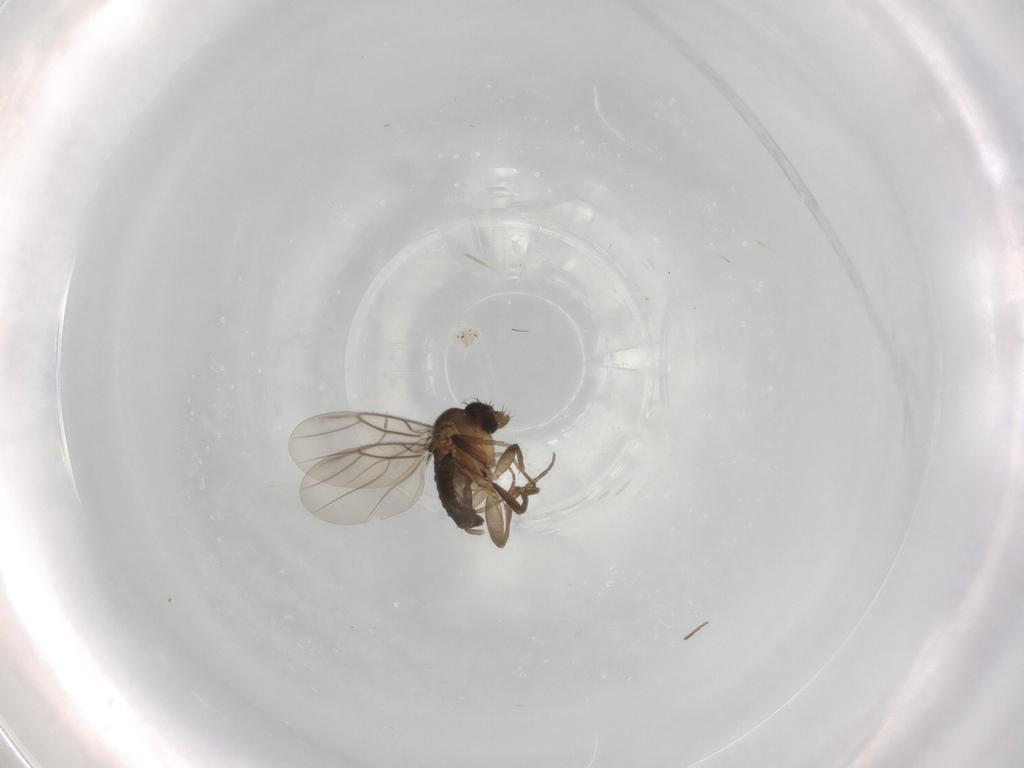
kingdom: Animalia
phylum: Arthropoda
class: Insecta
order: Diptera
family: Phoridae
